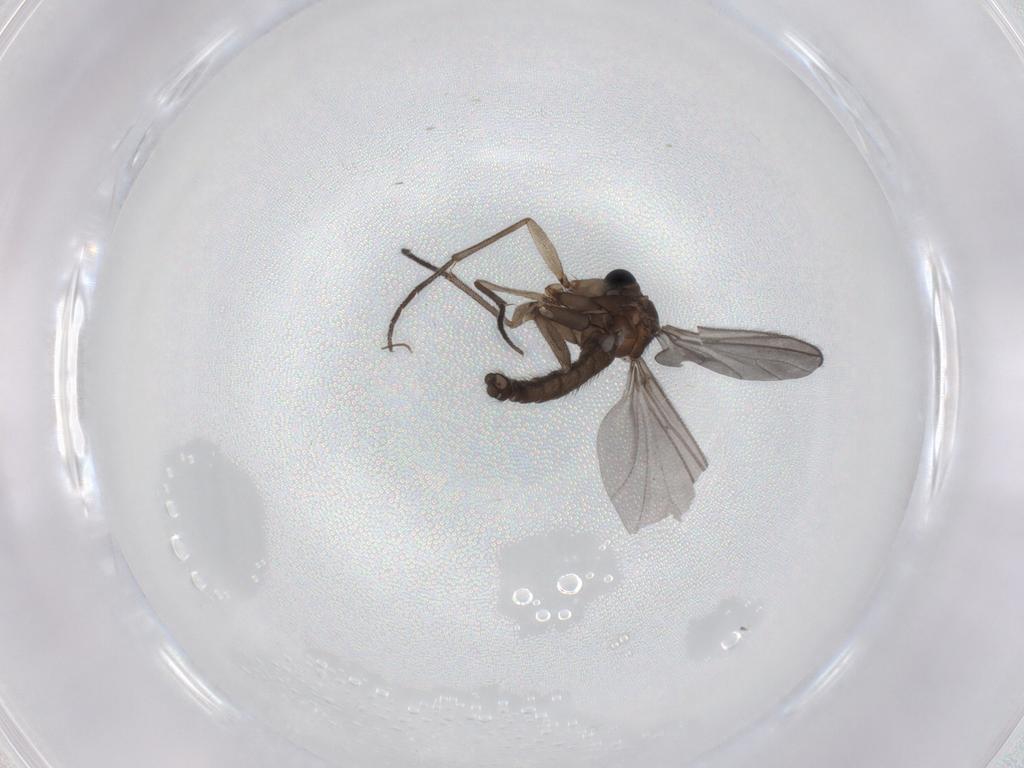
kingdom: Animalia
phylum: Arthropoda
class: Insecta
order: Diptera
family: Sciaridae
